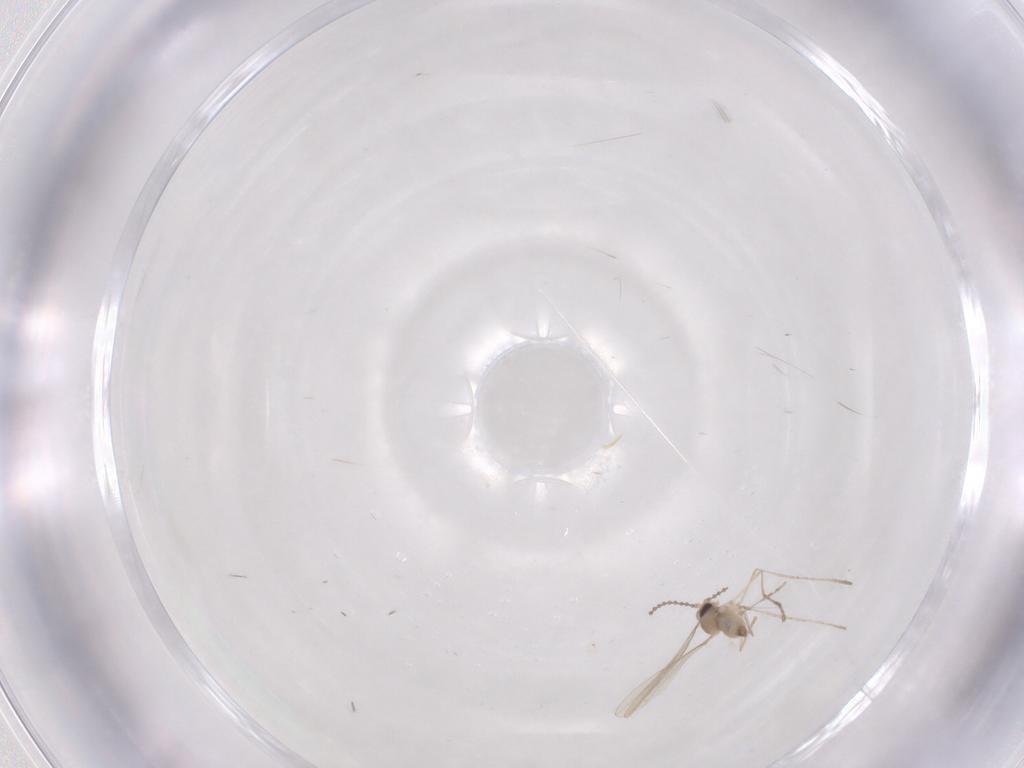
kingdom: Animalia
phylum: Arthropoda
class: Insecta
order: Diptera
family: Cecidomyiidae
